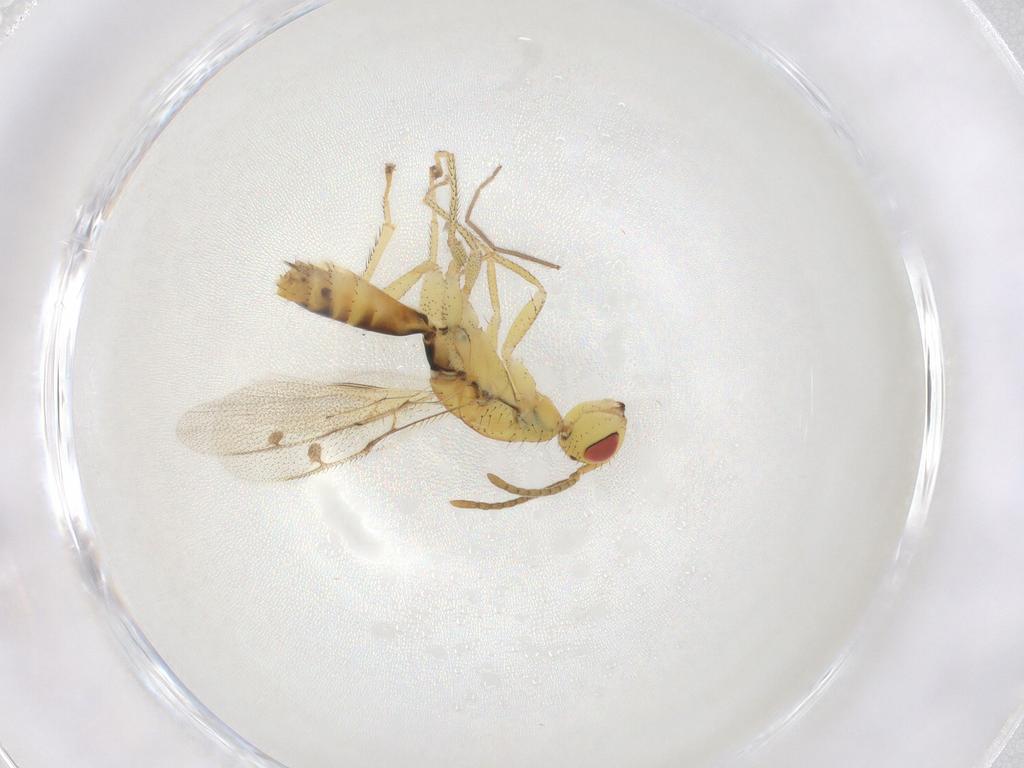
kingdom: Animalia
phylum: Arthropoda
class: Insecta
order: Hymenoptera
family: Megastigmidae
